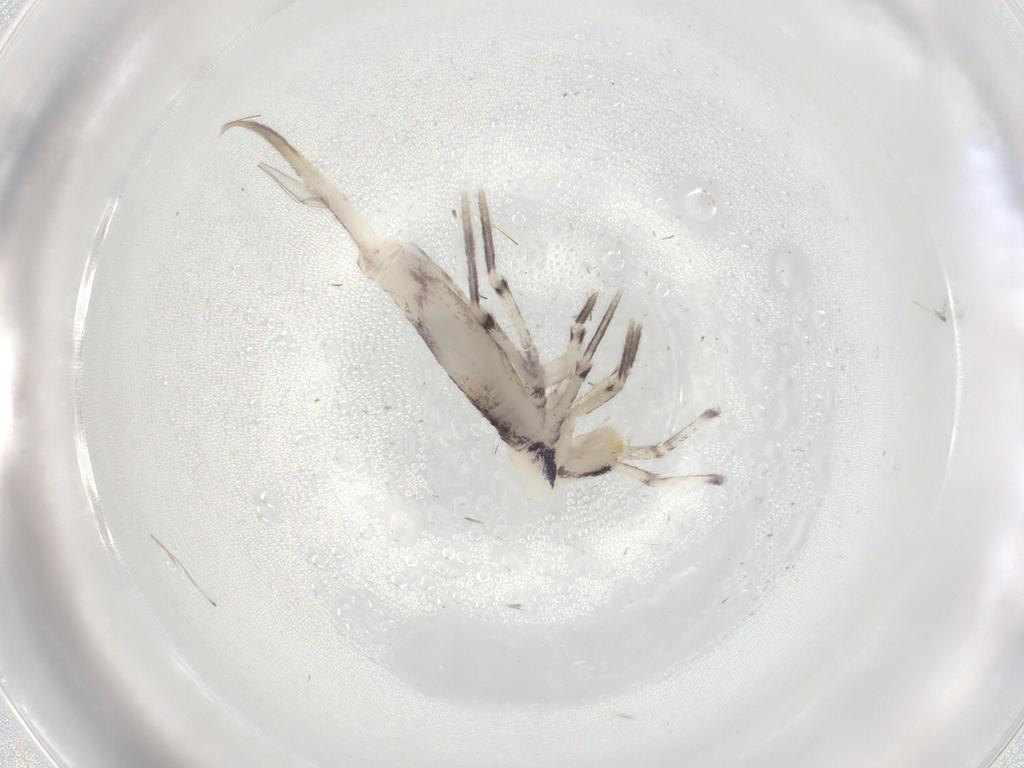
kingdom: Animalia
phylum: Arthropoda
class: Collembola
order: Entomobryomorpha
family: Entomobryidae
